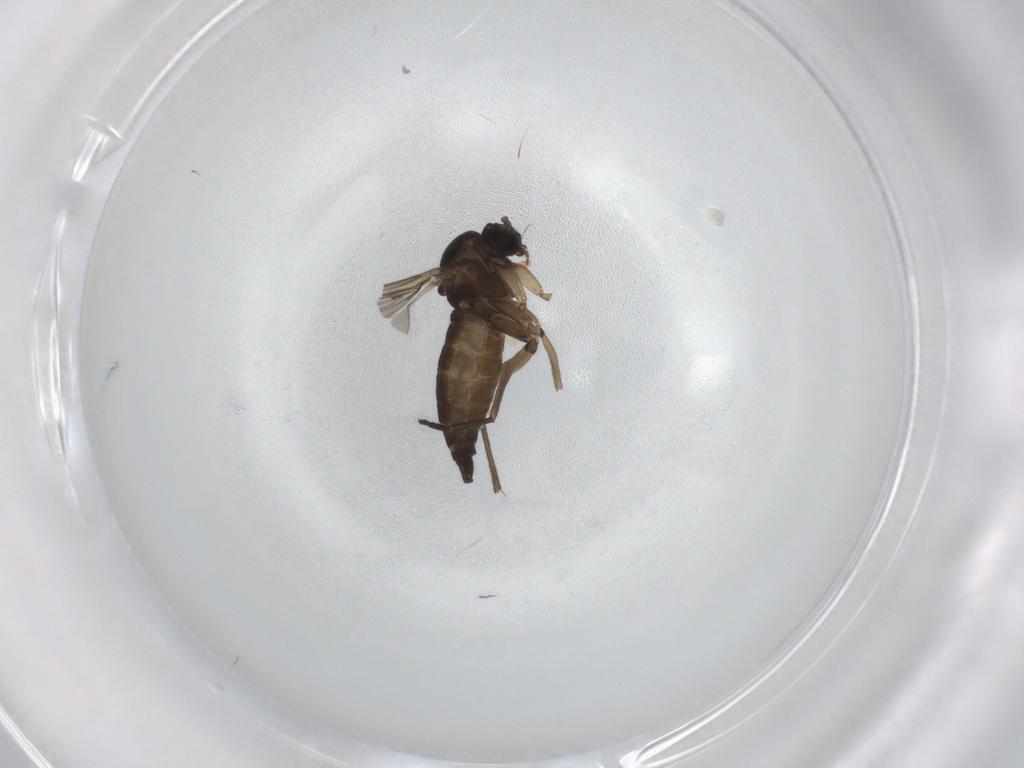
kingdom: Animalia
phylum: Arthropoda
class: Insecta
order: Diptera
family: Sciaridae
